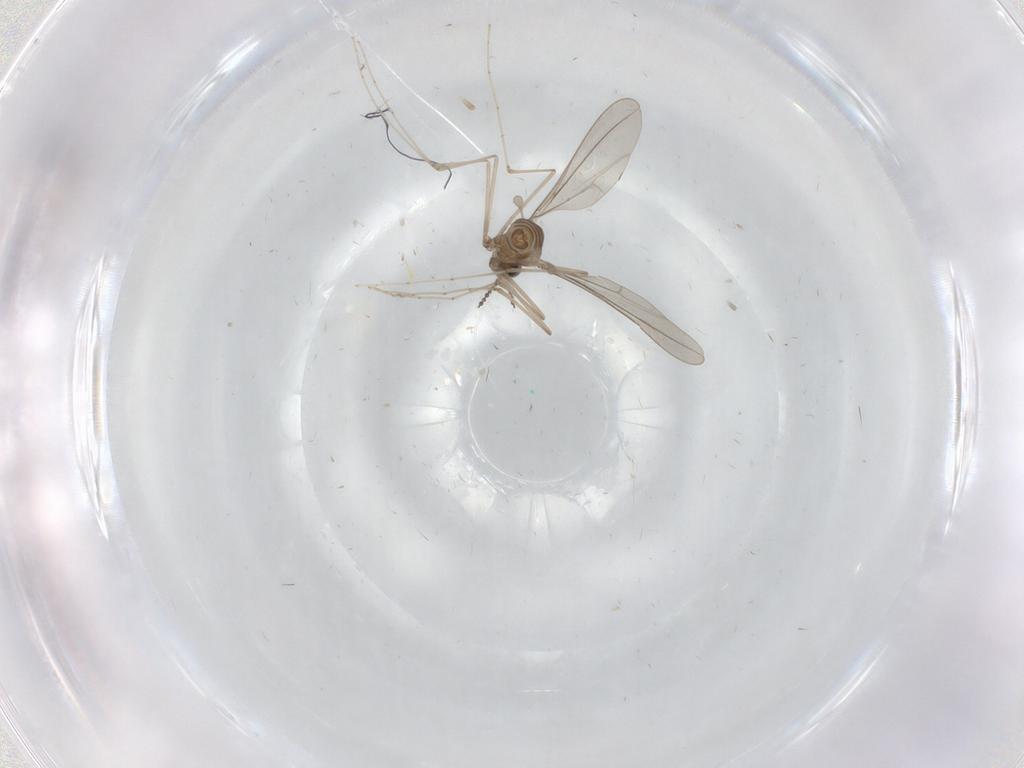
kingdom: Animalia
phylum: Arthropoda
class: Insecta
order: Diptera
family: Cecidomyiidae
